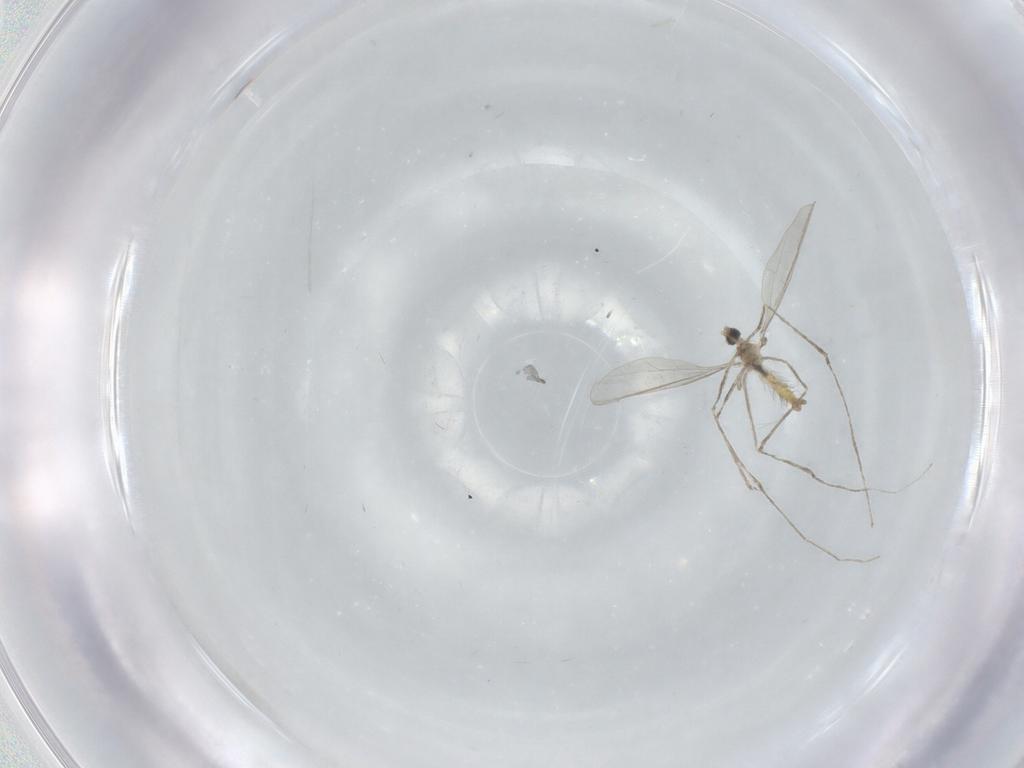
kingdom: Animalia
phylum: Arthropoda
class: Insecta
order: Diptera
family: Cecidomyiidae
